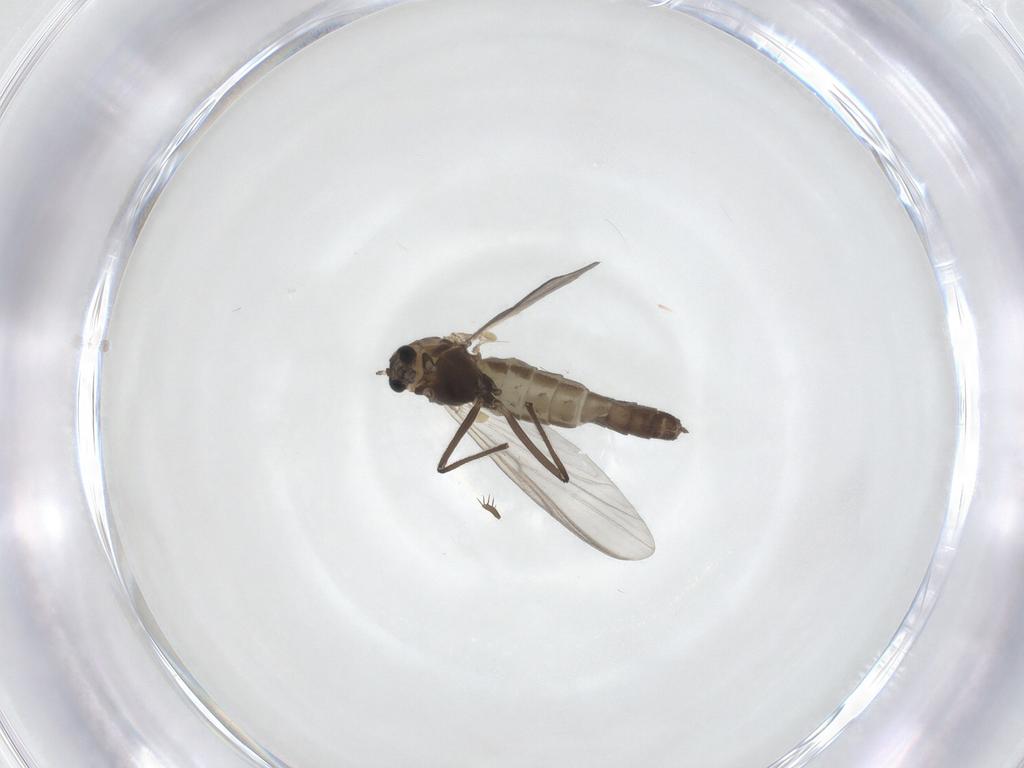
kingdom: Animalia
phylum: Arthropoda
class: Insecta
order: Diptera
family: Chironomidae
